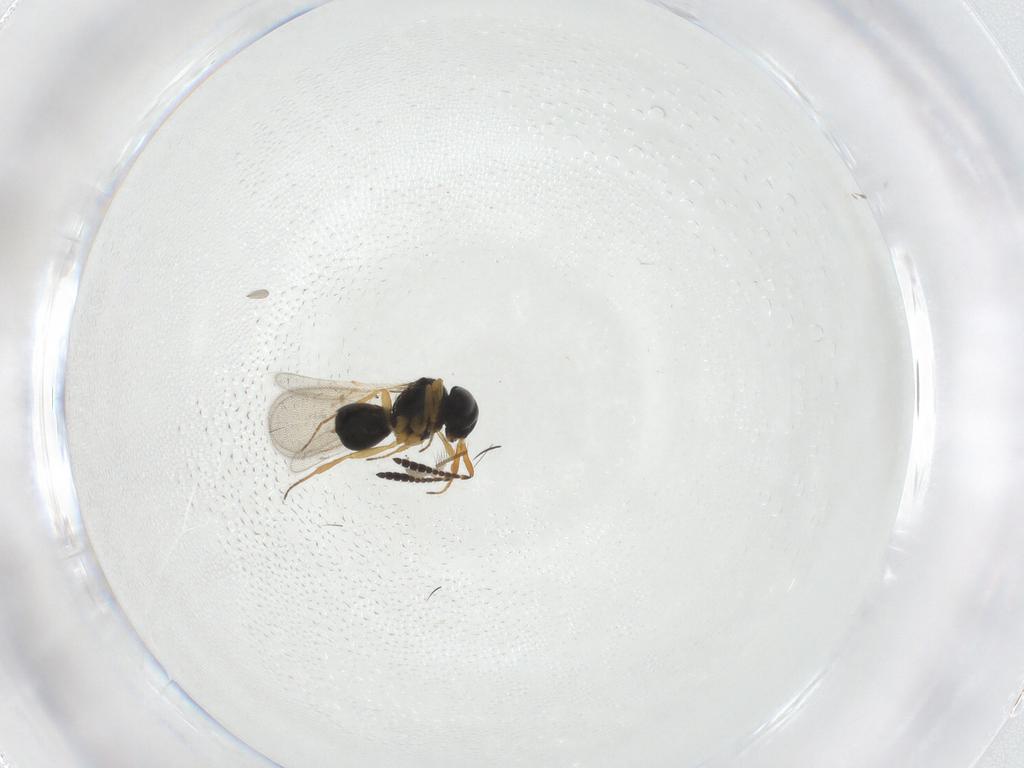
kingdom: Animalia
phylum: Arthropoda
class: Insecta
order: Hymenoptera
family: Scelionidae
